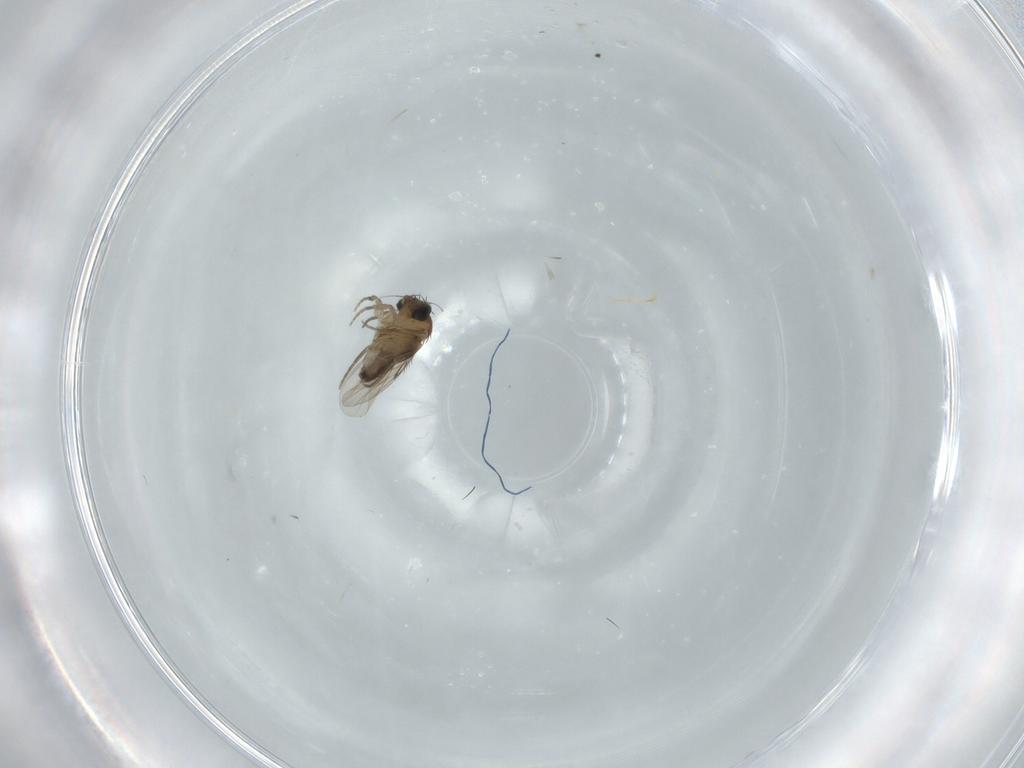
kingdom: Animalia
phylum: Arthropoda
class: Insecta
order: Diptera
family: Phoridae
